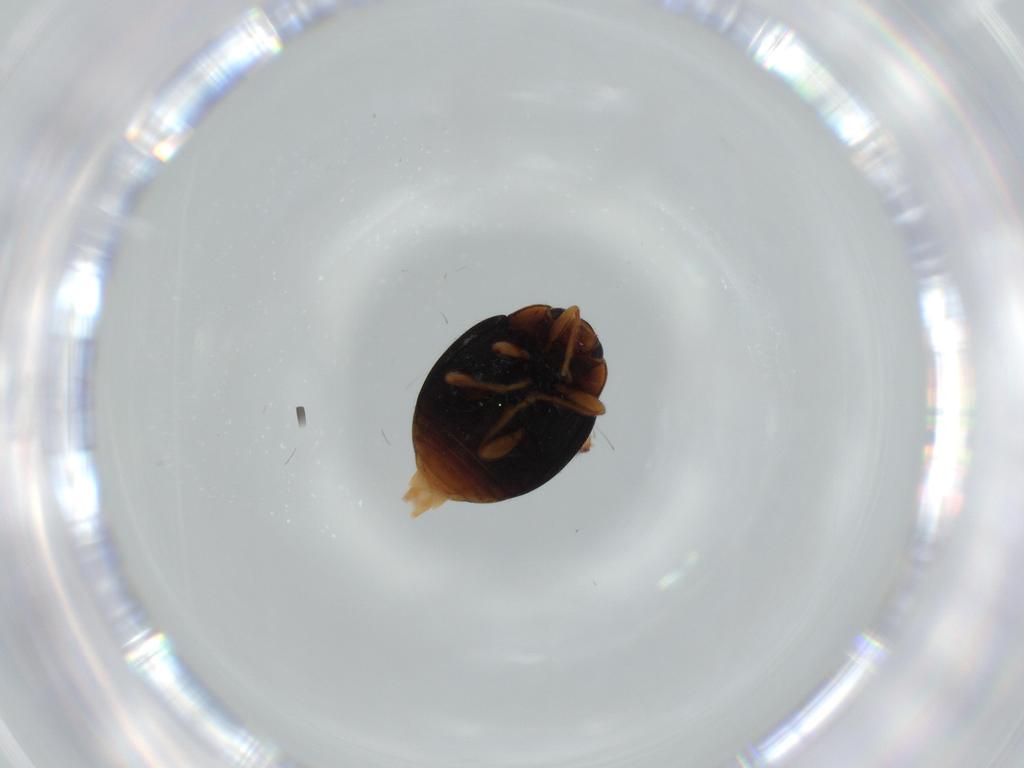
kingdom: Animalia
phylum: Arthropoda
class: Insecta
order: Coleoptera
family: Coccinellidae
